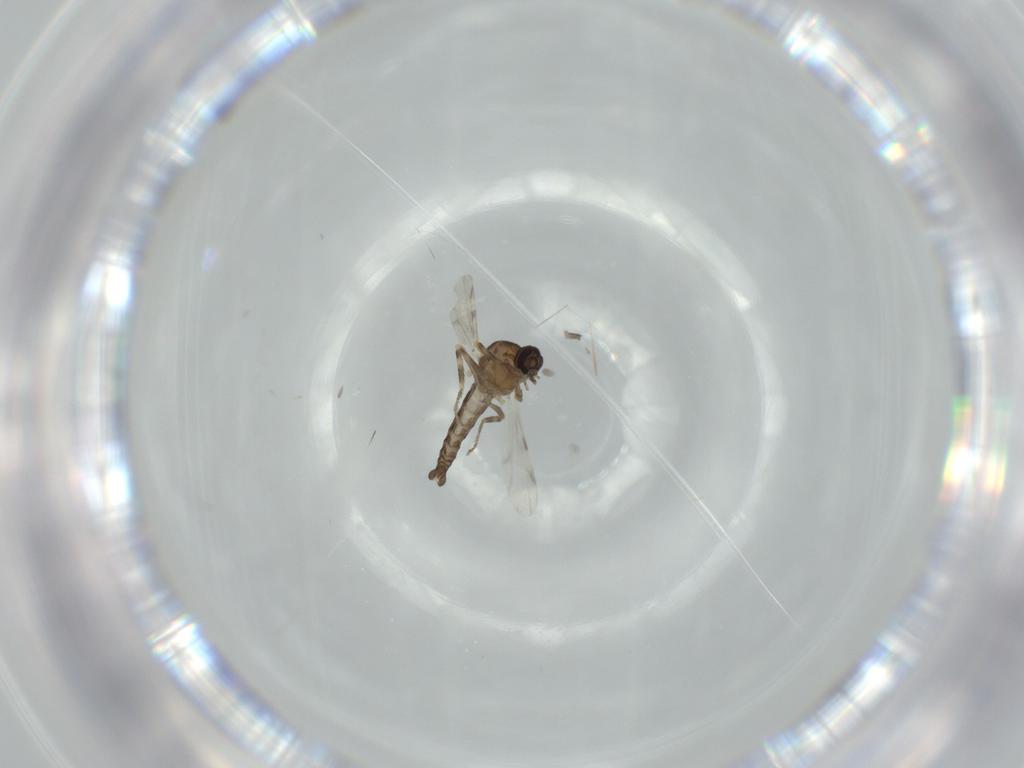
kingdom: Animalia
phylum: Arthropoda
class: Insecta
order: Diptera
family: Ceratopogonidae
